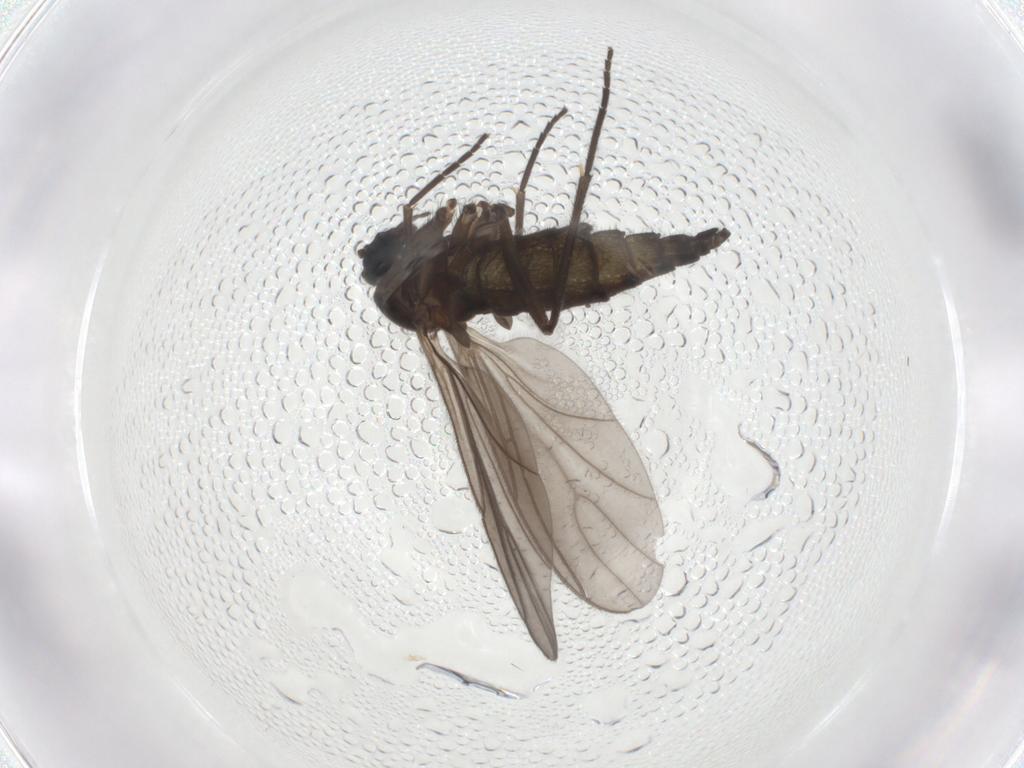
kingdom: Animalia
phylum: Arthropoda
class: Insecta
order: Diptera
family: Sciaridae
